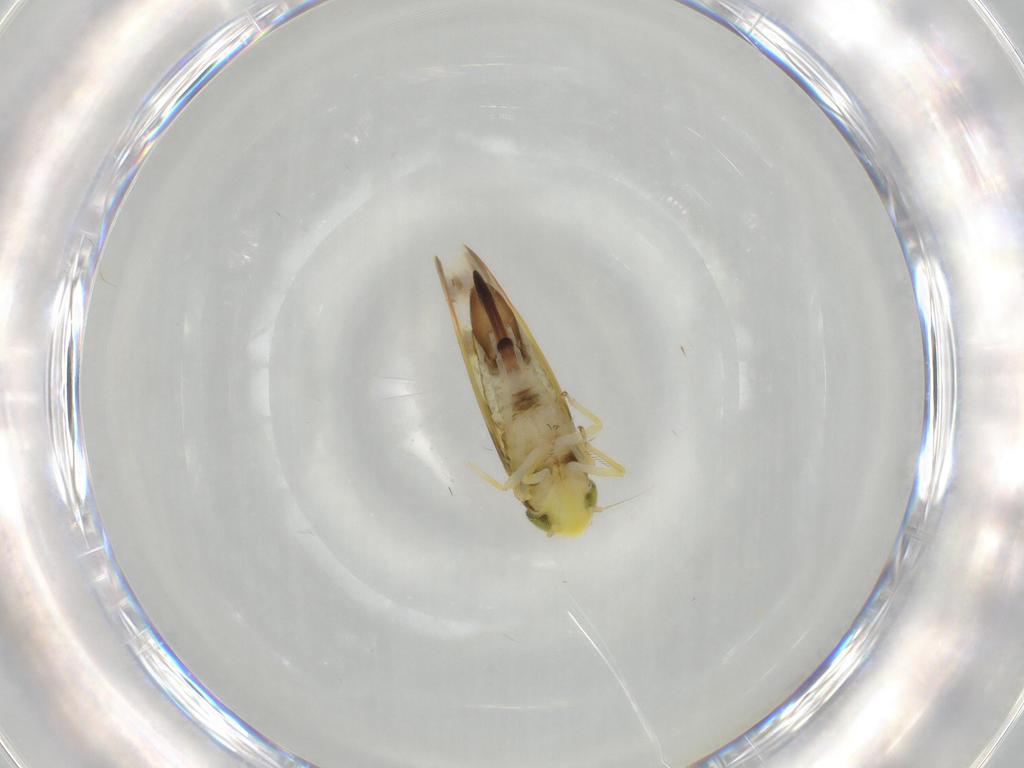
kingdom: Animalia
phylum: Arthropoda
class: Insecta
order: Hemiptera
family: Cicadellidae
